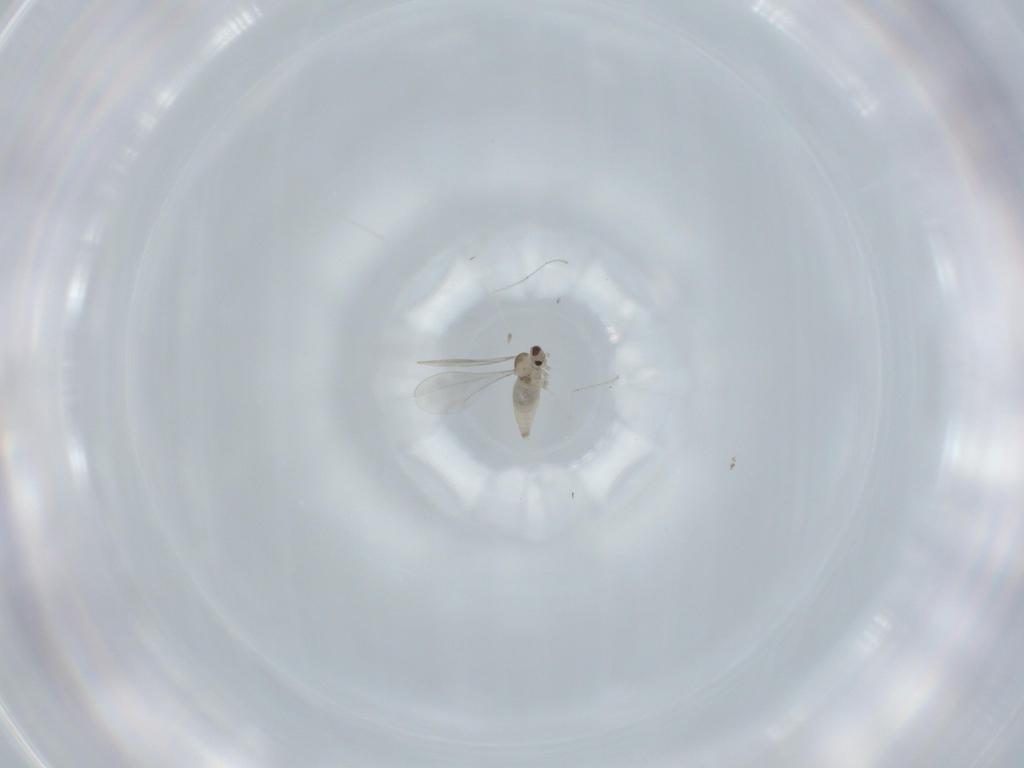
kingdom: Animalia
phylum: Arthropoda
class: Insecta
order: Diptera
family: Cecidomyiidae
